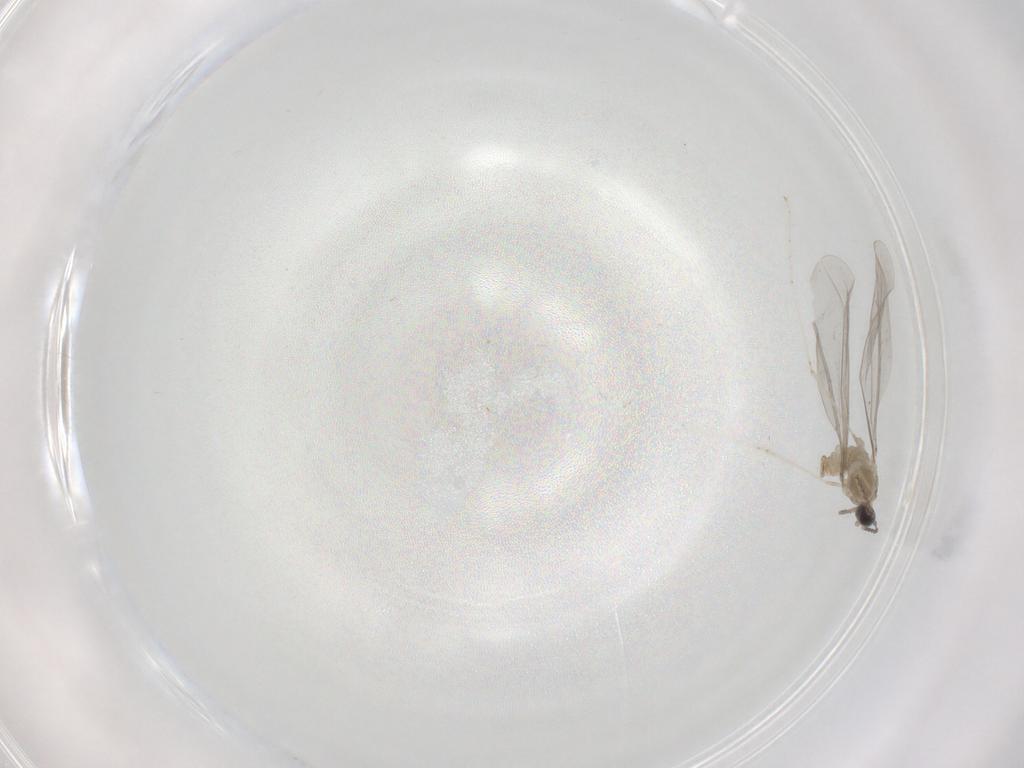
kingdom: Animalia
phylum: Arthropoda
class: Insecta
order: Diptera
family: Cecidomyiidae
